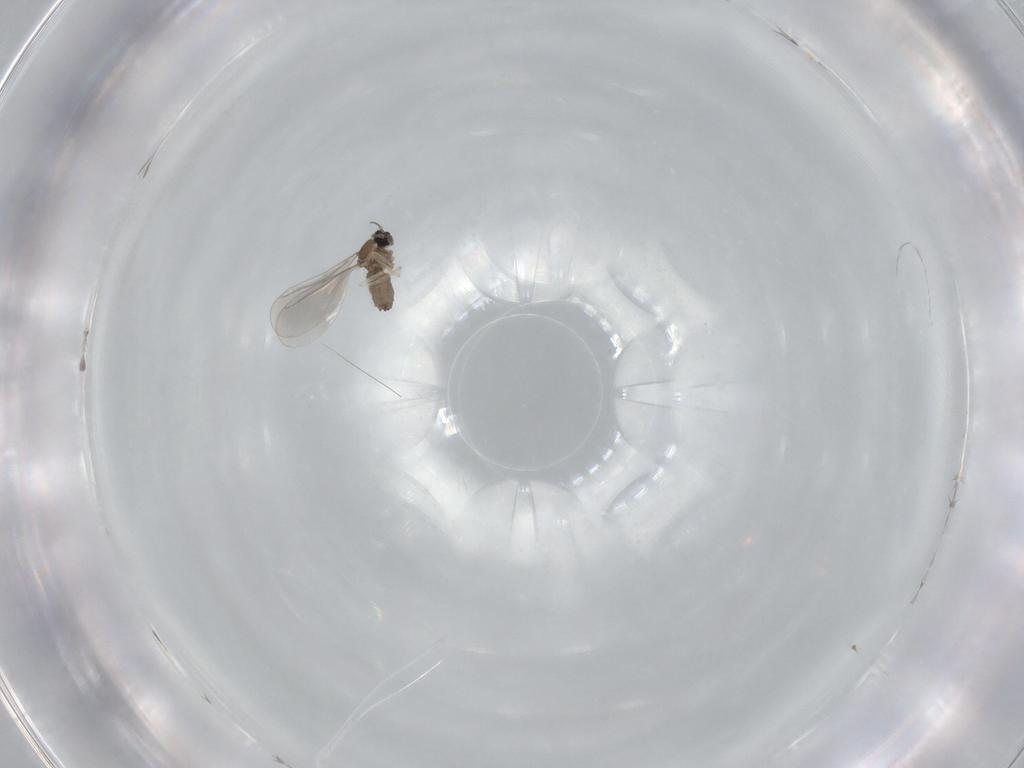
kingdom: Animalia
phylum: Arthropoda
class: Insecta
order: Diptera
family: Cecidomyiidae
